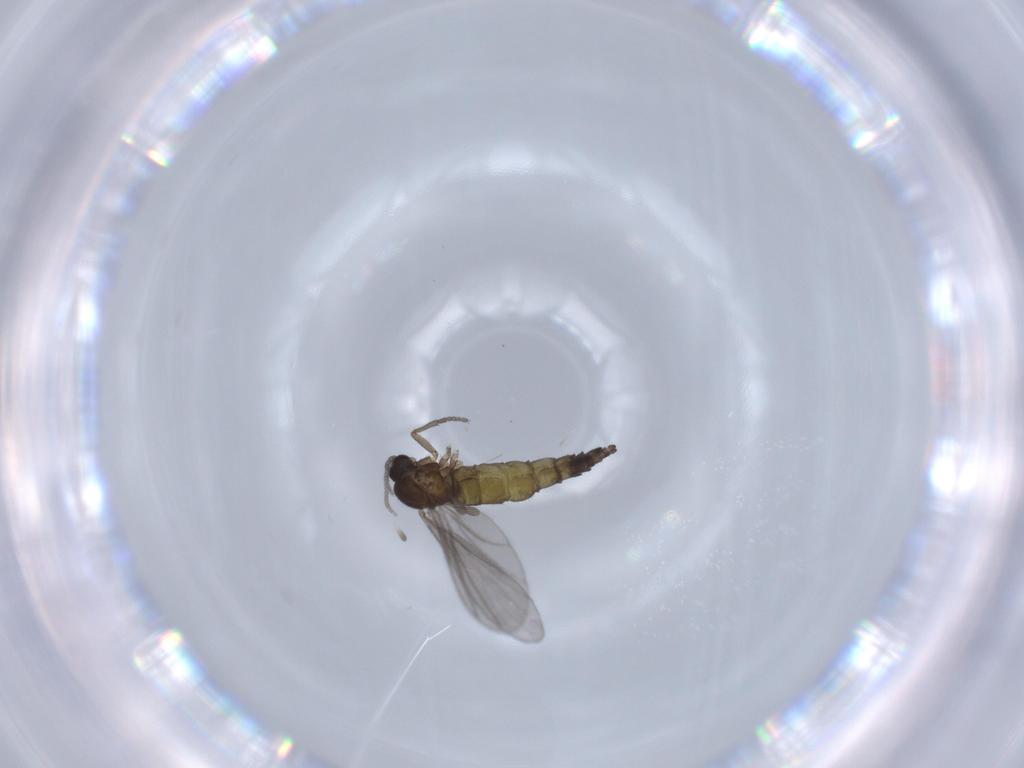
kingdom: Animalia
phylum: Arthropoda
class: Insecta
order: Diptera
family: Sciaridae
